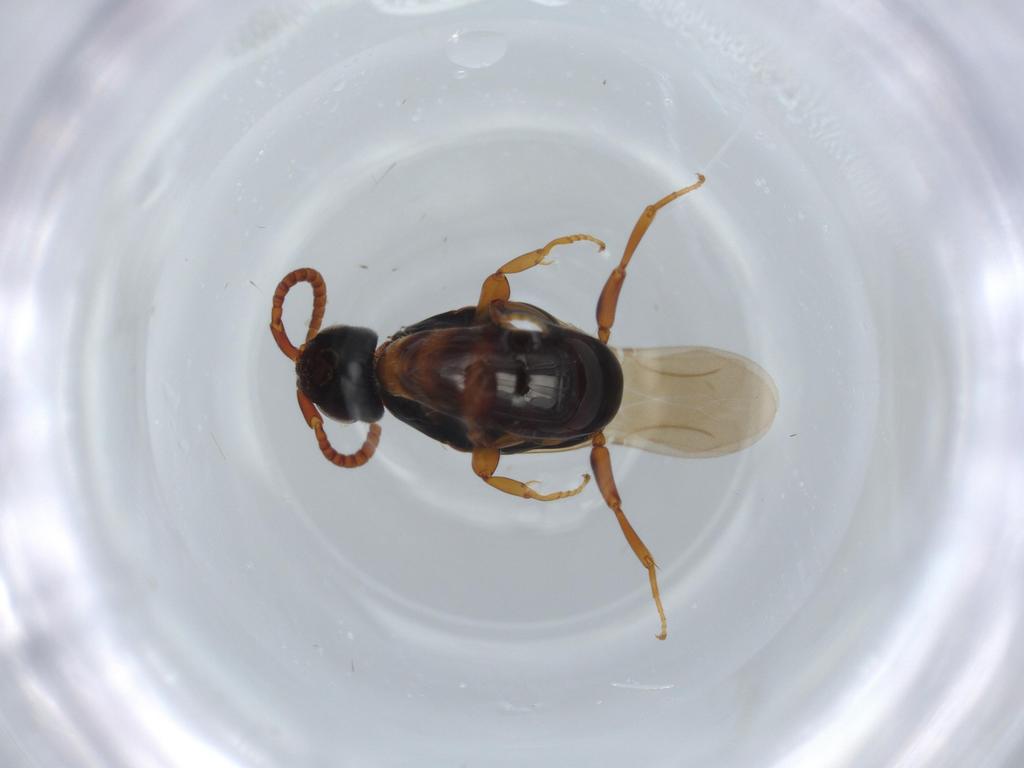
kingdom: Animalia
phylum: Arthropoda
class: Insecta
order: Hymenoptera
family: Bethylidae
